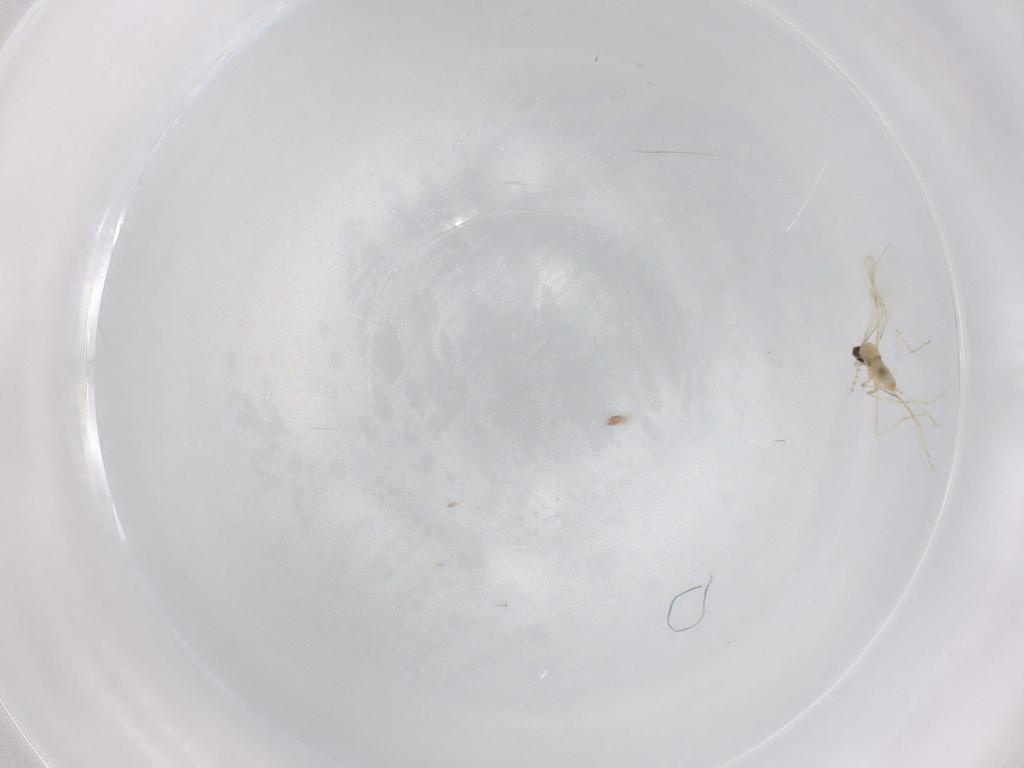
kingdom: Animalia
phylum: Arthropoda
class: Insecta
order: Diptera
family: Cecidomyiidae
